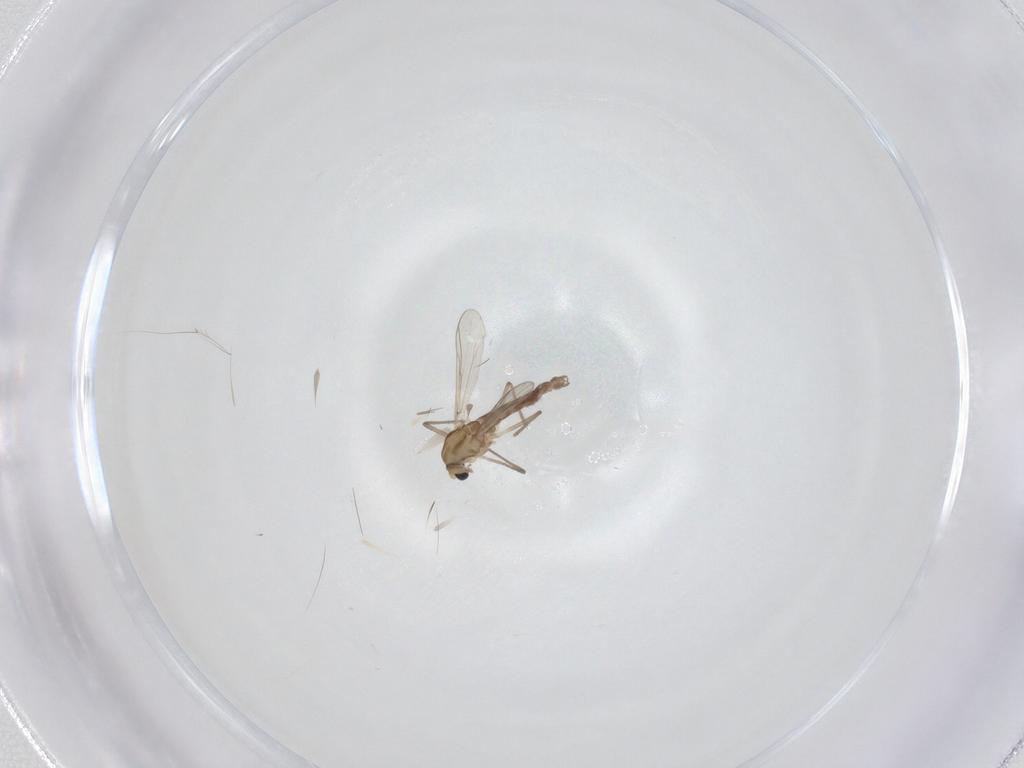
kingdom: Animalia
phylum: Arthropoda
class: Insecta
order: Diptera
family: Chironomidae
